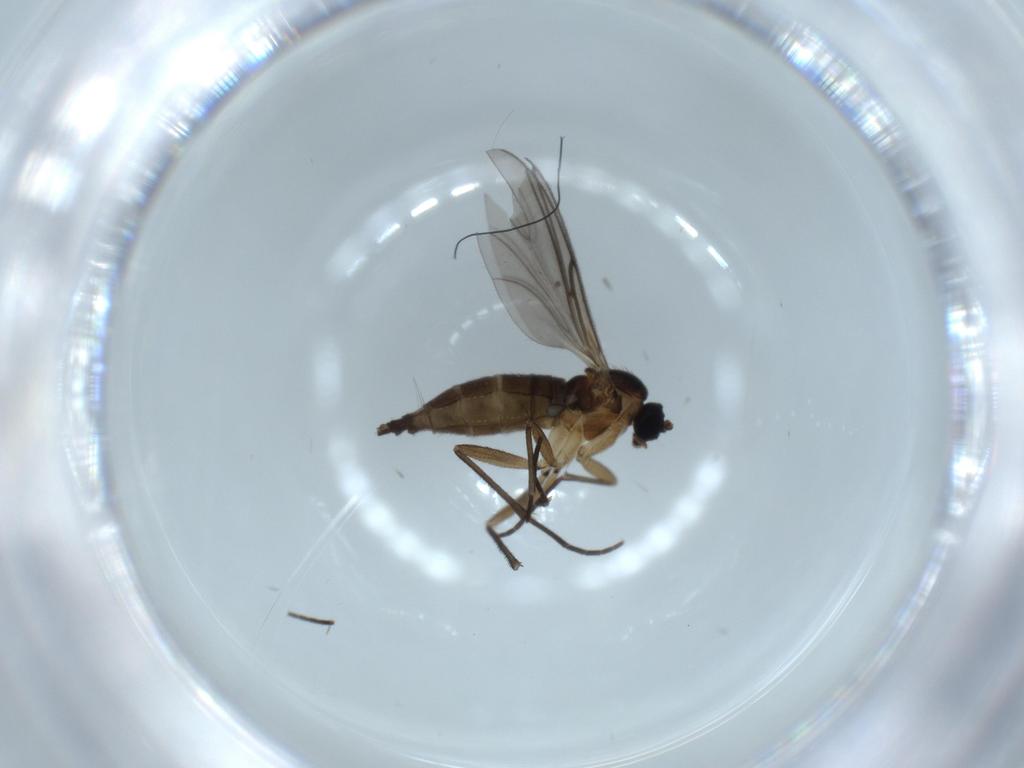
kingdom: Animalia
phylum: Arthropoda
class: Insecta
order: Diptera
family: Sciaridae
